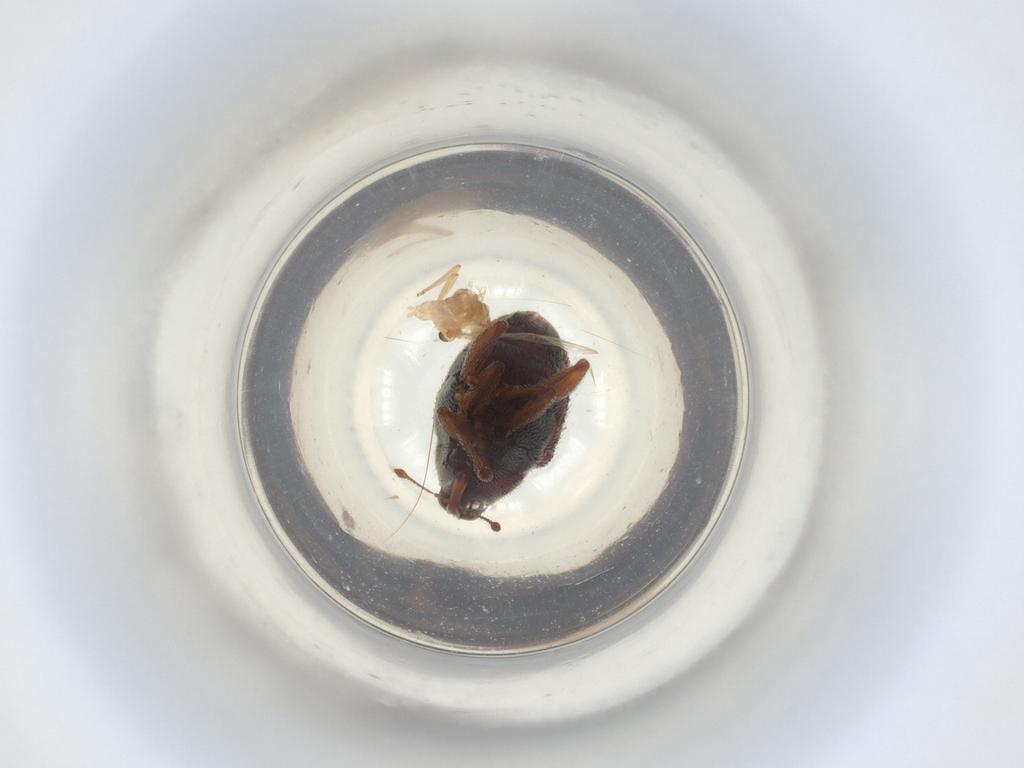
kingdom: Animalia
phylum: Arthropoda
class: Insecta
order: Diptera
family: Chironomidae
